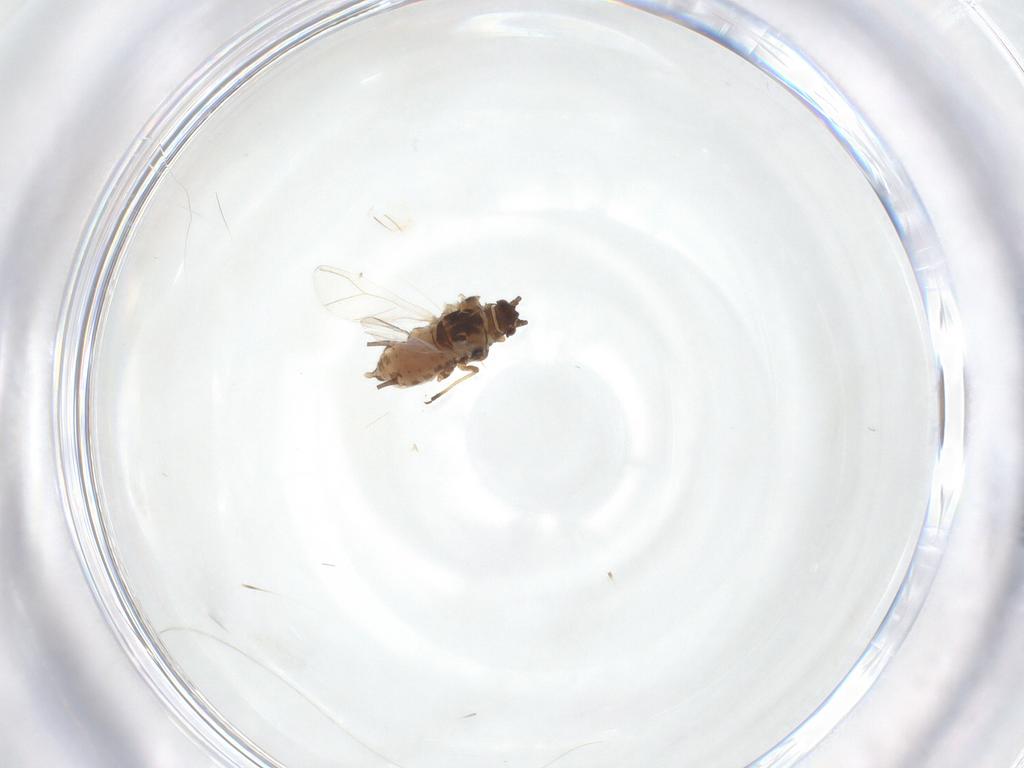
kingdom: Animalia
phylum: Arthropoda
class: Insecta
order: Hemiptera
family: Aphididae
